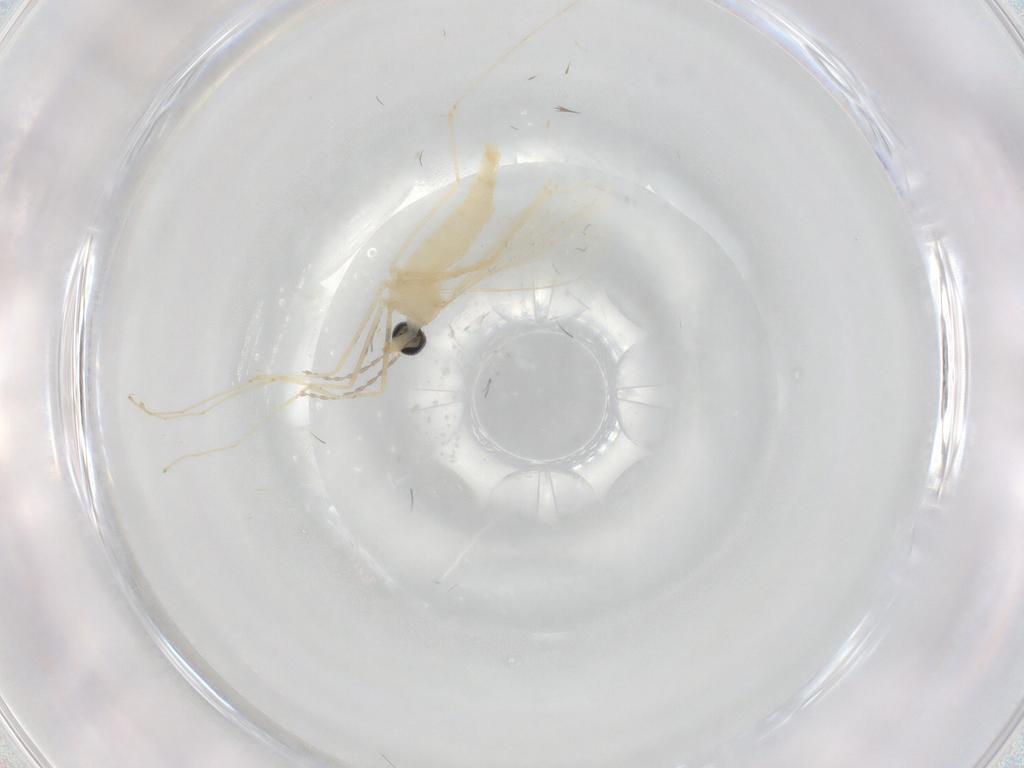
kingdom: Animalia
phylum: Arthropoda
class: Insecta
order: Diptera
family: Cecidomyiidae
